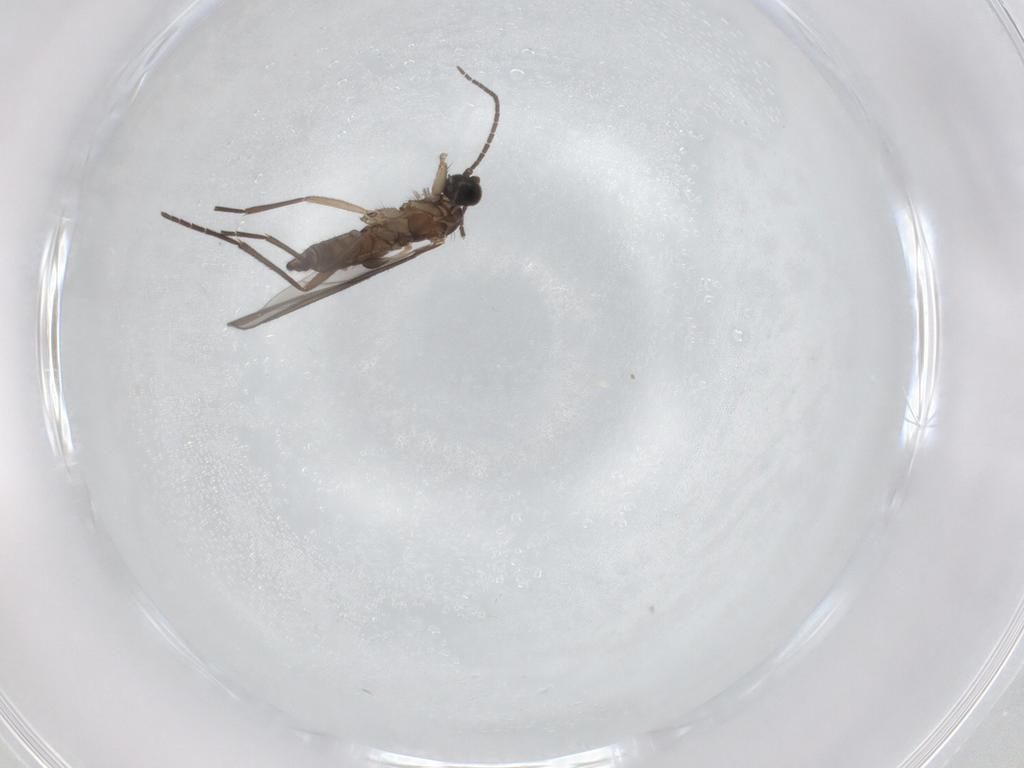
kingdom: Animalia
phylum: Arthropoda
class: Insecta
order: Diptera
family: Sciaridae
